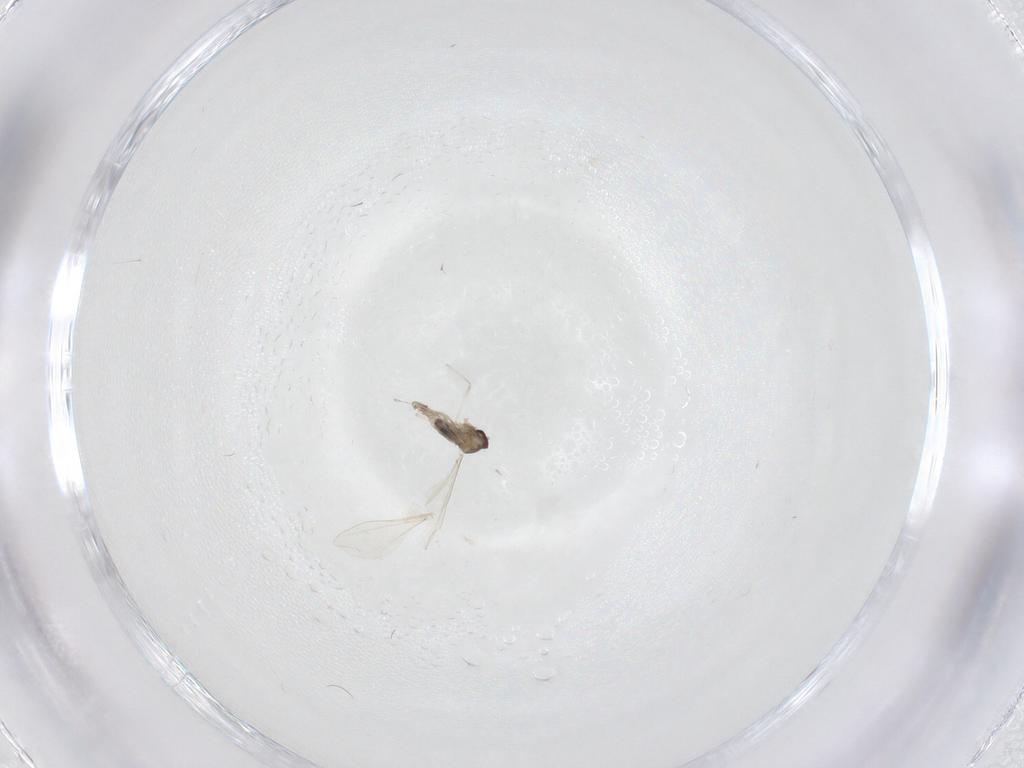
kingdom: Animalia
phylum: Arthropoda
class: Insecta
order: Diptera
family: Cecidomyiidae
